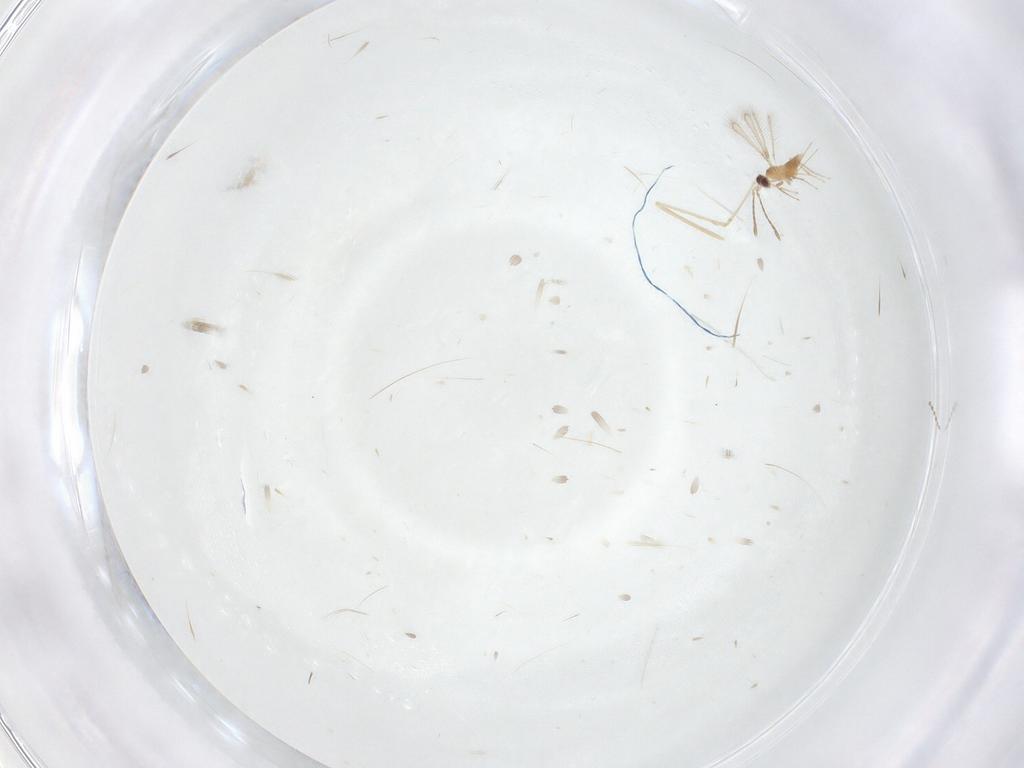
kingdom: Animalia
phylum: Arthropoda
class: Insecta
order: Diptera
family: Cecidomyiidae
